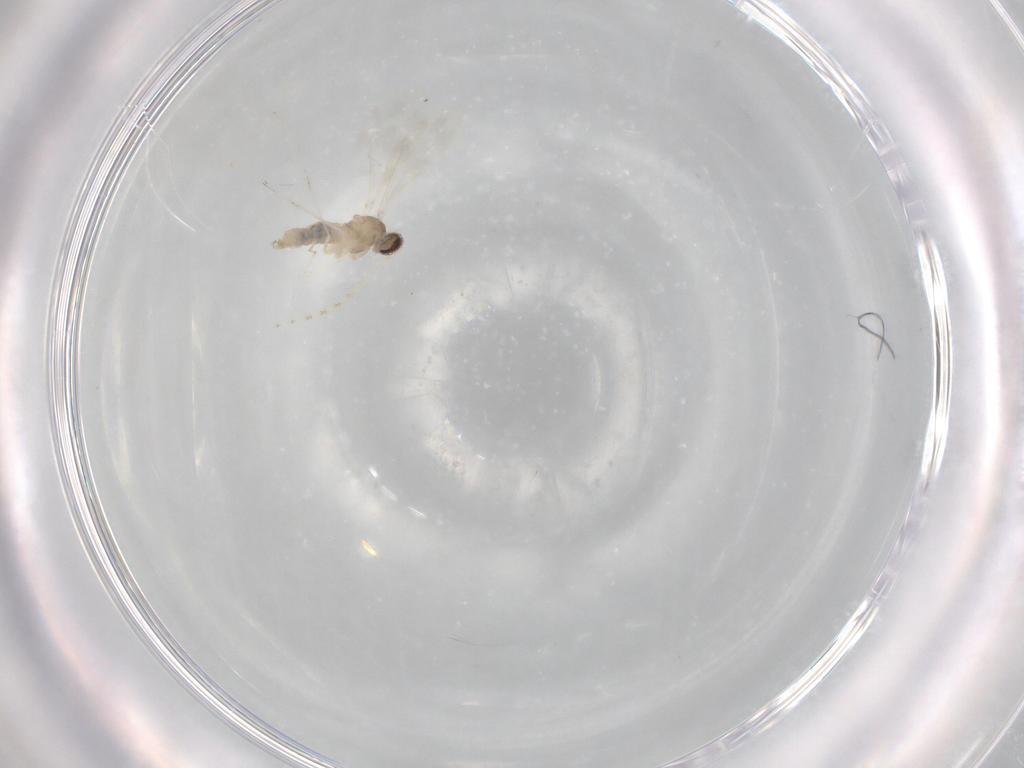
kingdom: Animalia
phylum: Arthropoda
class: Insecta
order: Diptera
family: Cecidomyiidae
